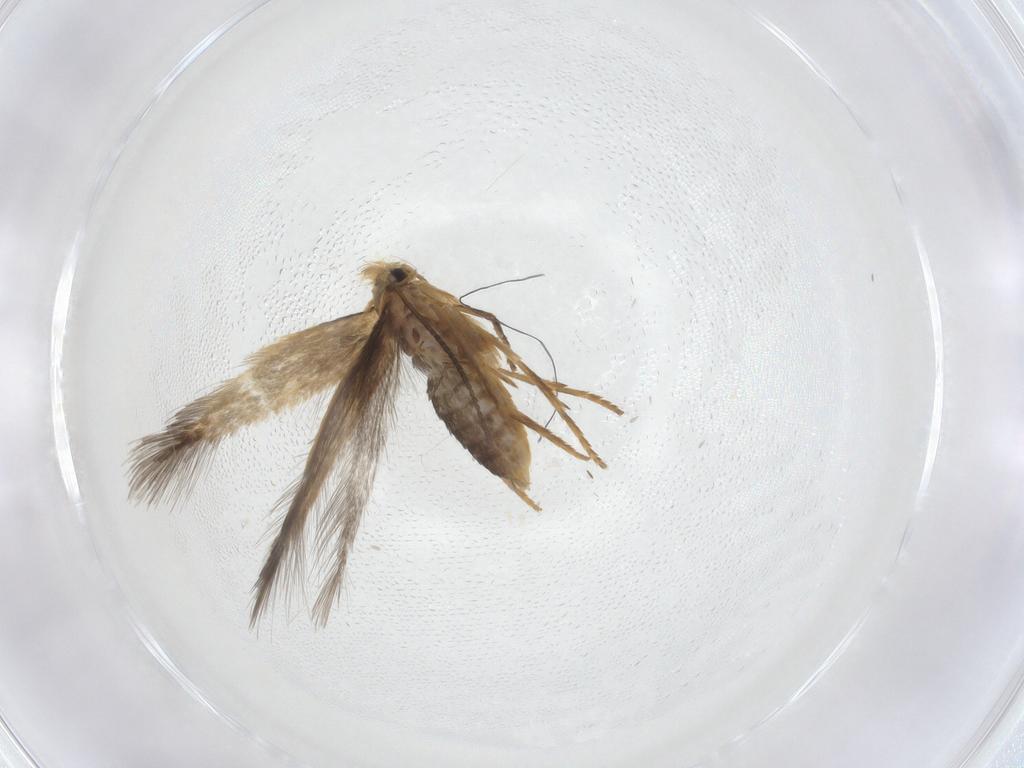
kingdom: Animalia
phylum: Arthropoda
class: Insecta
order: Lepidoptera
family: Nepticulidae
